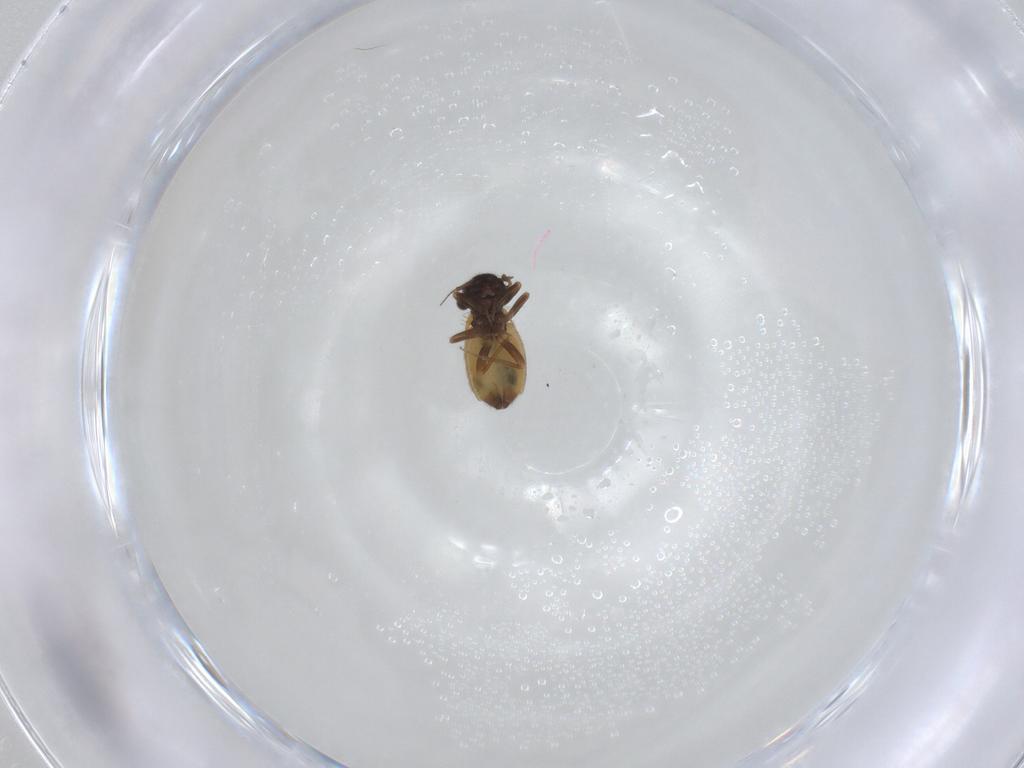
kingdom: Animalia
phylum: Arthropoda
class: Insecta
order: Psocodea
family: Trogiidae
